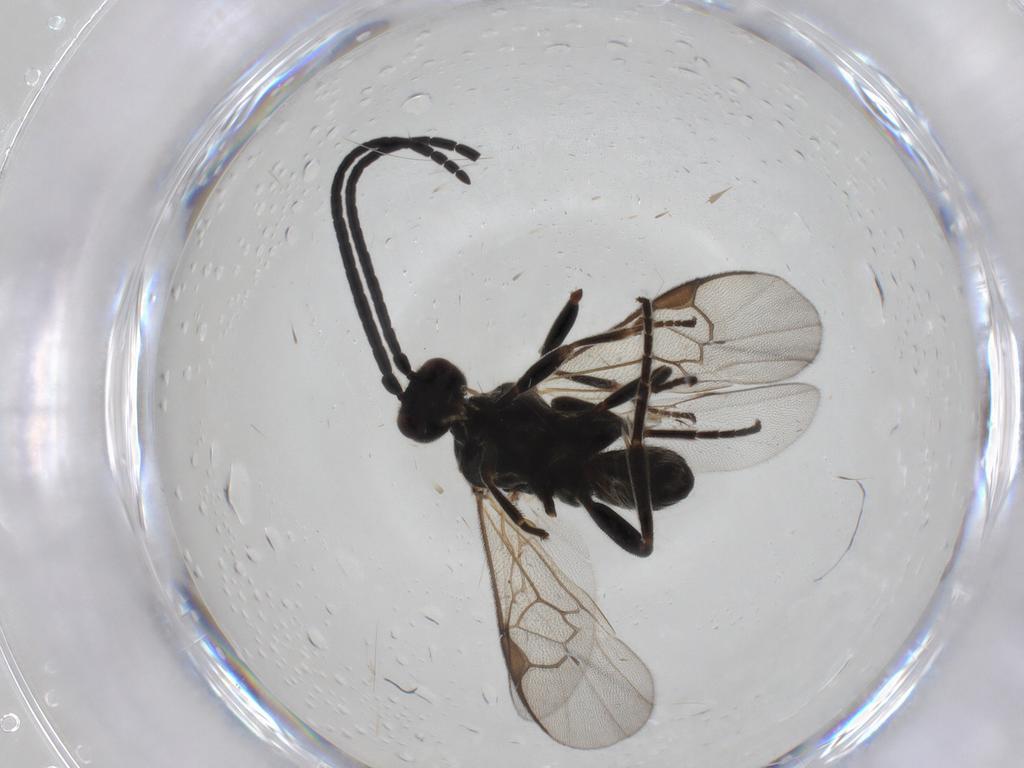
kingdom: Animalia
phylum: Arthropoda
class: Insecta
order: Hymenoptera
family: Braconidae
